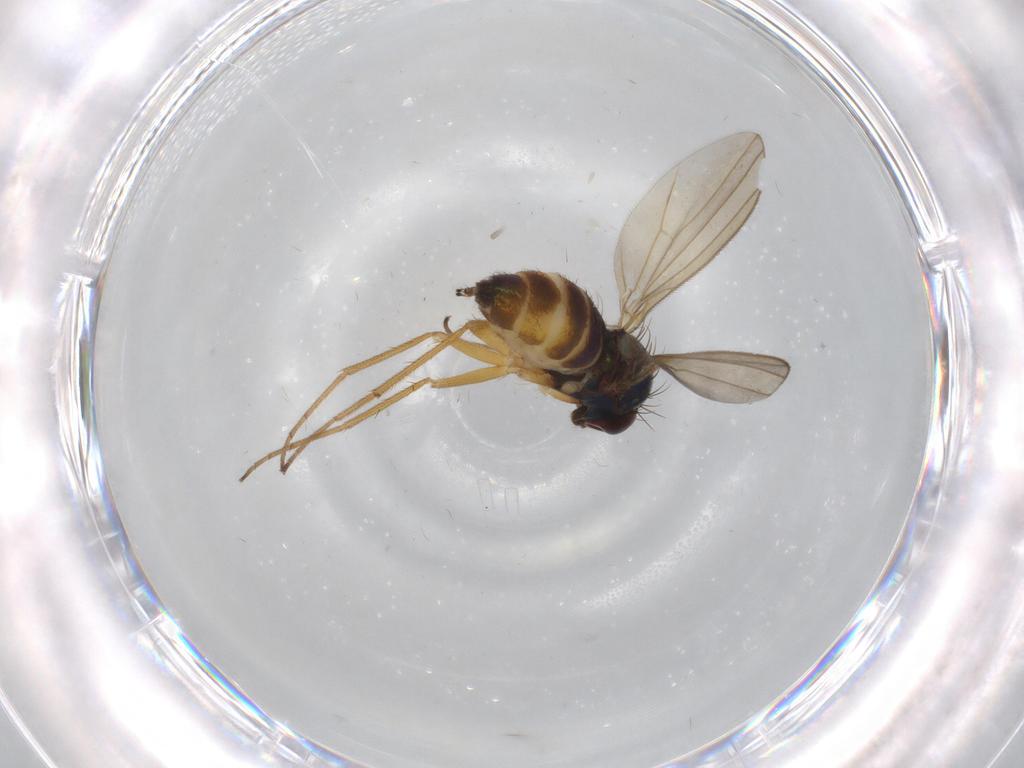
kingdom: Animalia
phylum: Arthropoda
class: Insecta
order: Diptera
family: Dolichopodidae
